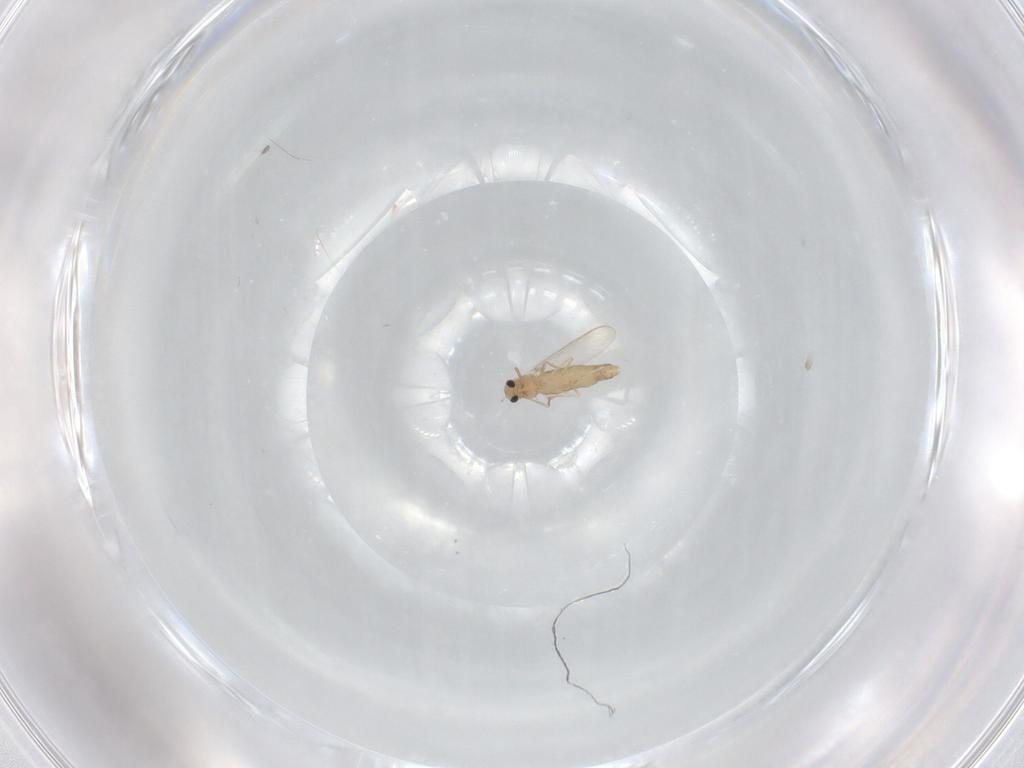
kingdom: Animalia
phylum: Arthropoda
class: Insecta
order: Diptera
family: Chironomidae
